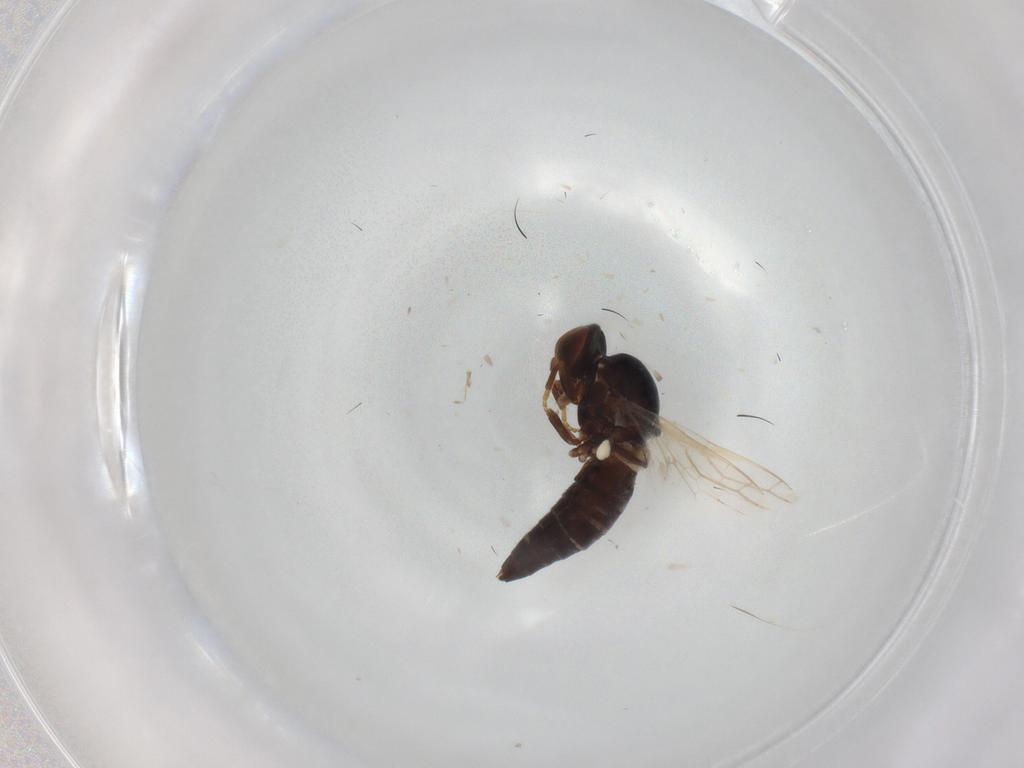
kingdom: Animalia
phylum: Arthropoda
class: Insecta
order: Diptera
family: Scenopinidae
